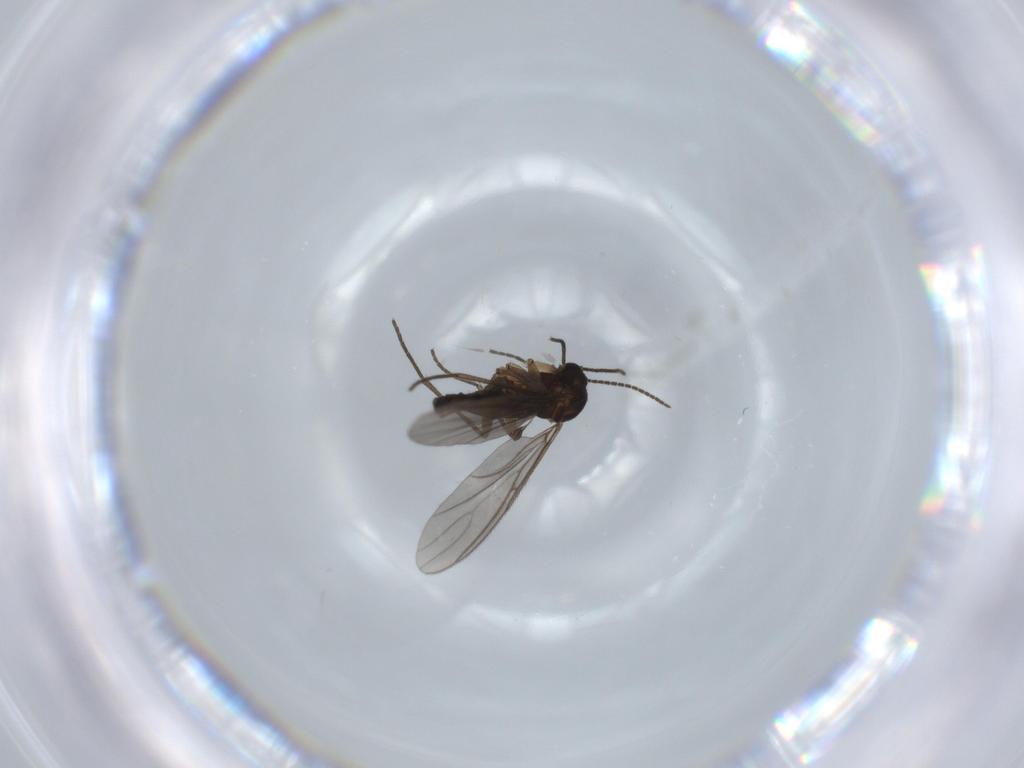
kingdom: Animalia
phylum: Arthropoda
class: Insecta
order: Diptera
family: Sciaridae
